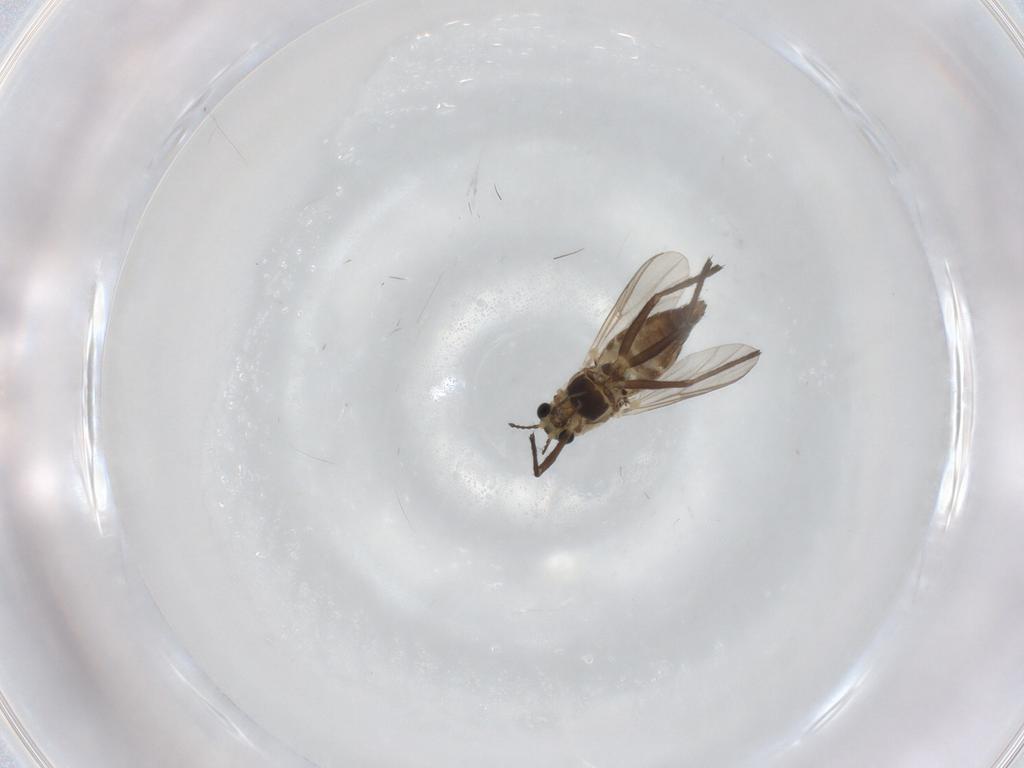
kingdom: Animalia
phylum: Arthropoda
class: Insecta
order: Diptera
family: Chironomidae
